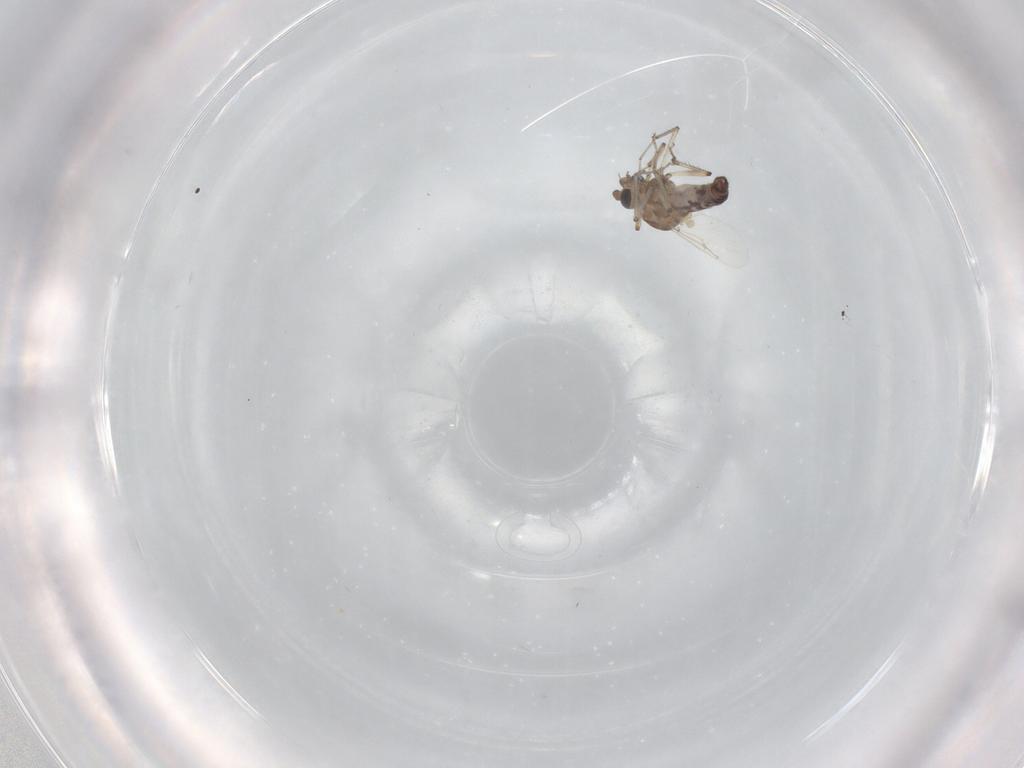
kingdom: Animalia
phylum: Arthropoda
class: Insecta
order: Diptera
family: Ceratopogonidae
